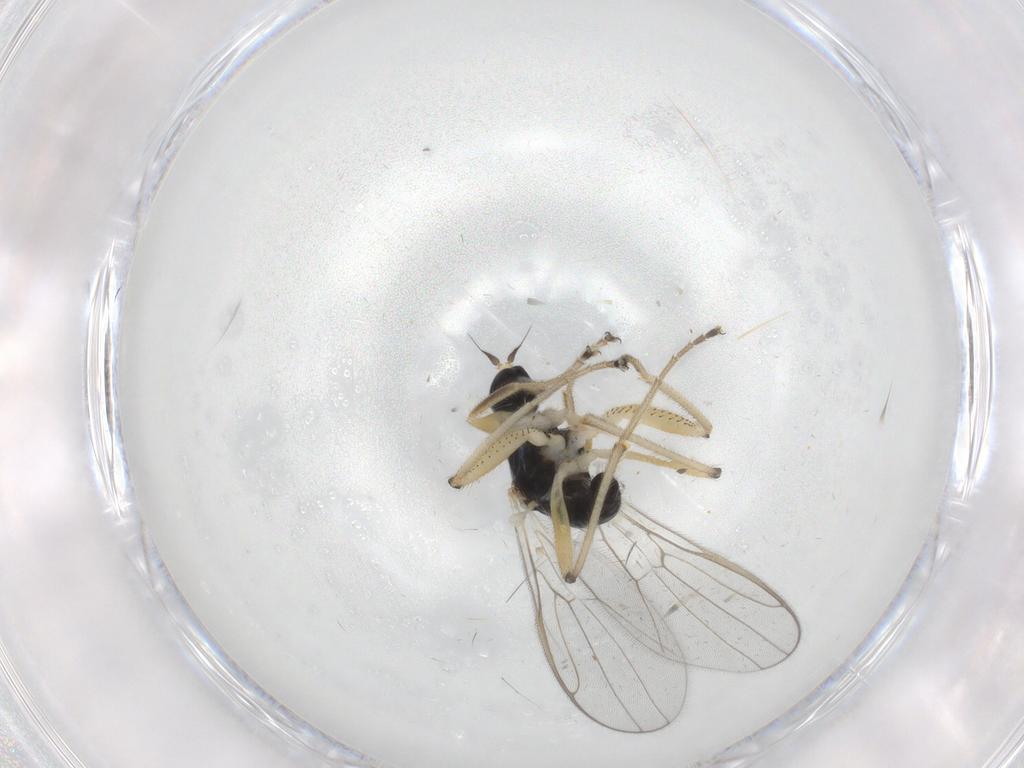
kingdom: Animalia
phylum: Arthropoda
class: Insecta
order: Diptera
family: Hybotidae
